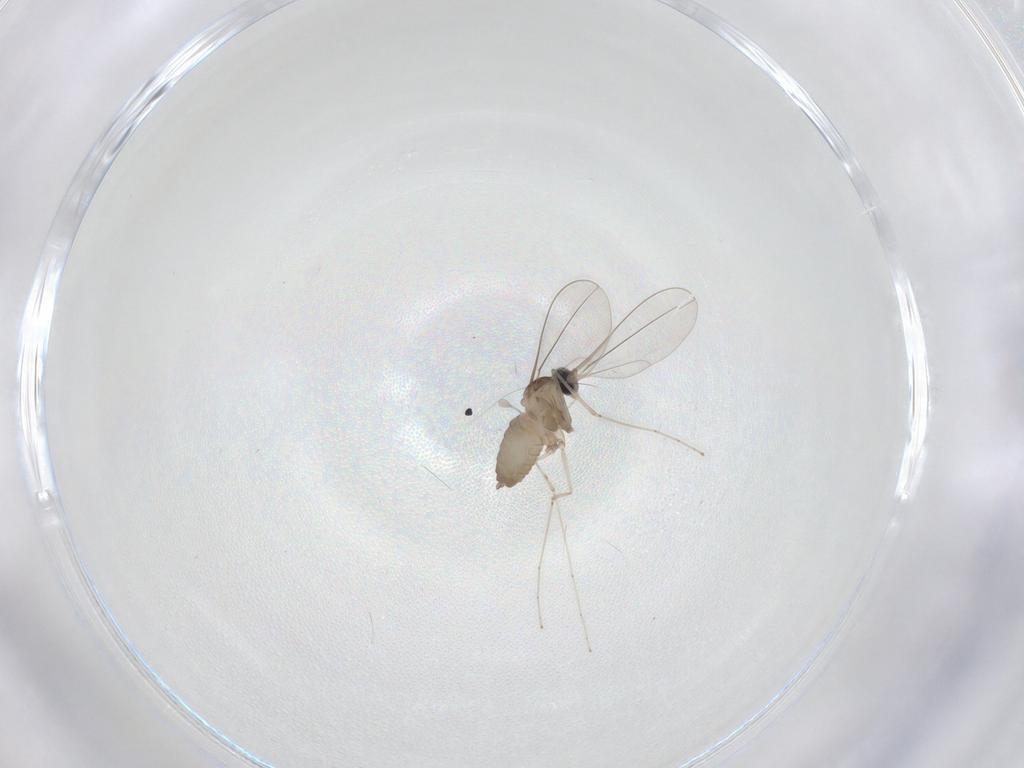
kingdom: Animalia
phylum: Arthropoda
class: Insecta
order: Diptera
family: Cecidomyiidae
